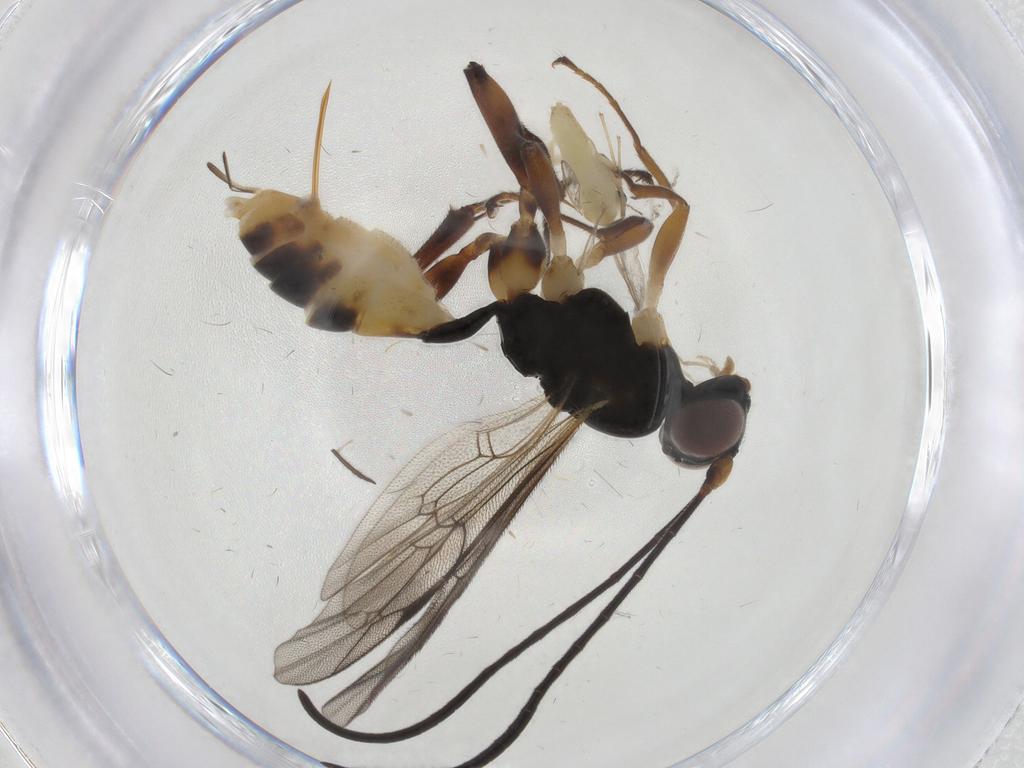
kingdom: Animalia
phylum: Arthropoda
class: Insecta
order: Diptera
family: Chironomidae
